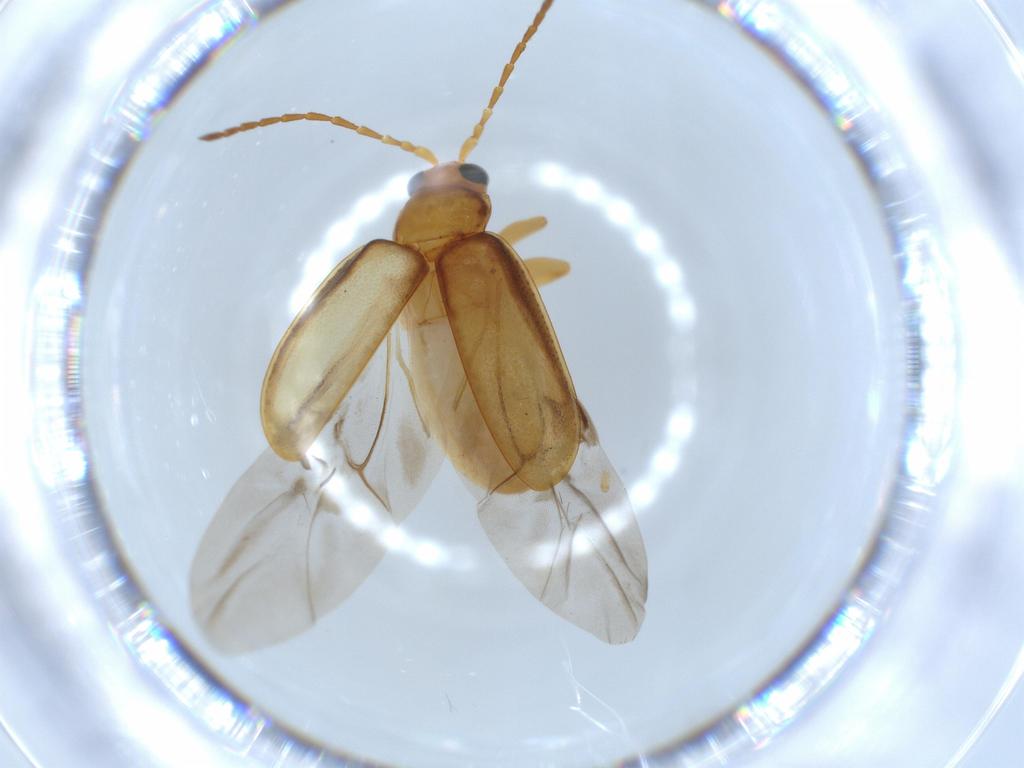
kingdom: Animalia
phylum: Arthropoda
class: Insecta
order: Coleoptera
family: Chrysomelidae
